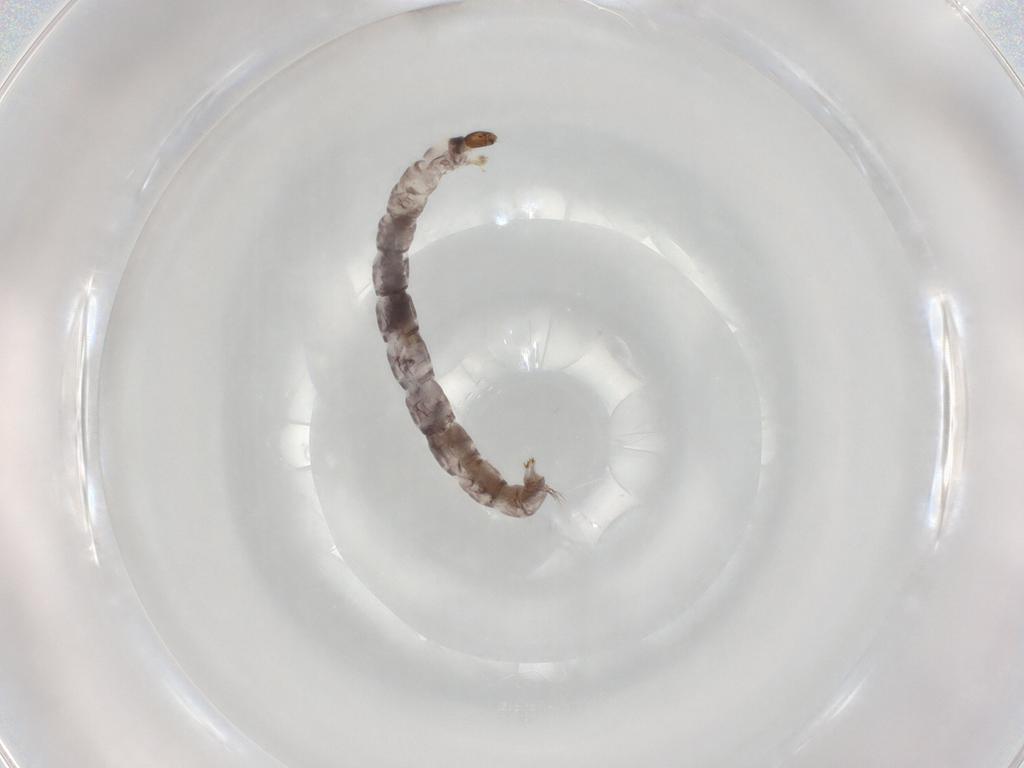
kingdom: Animalia
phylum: Arthropoda
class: Insecta
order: Diptera
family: Chironomidae
